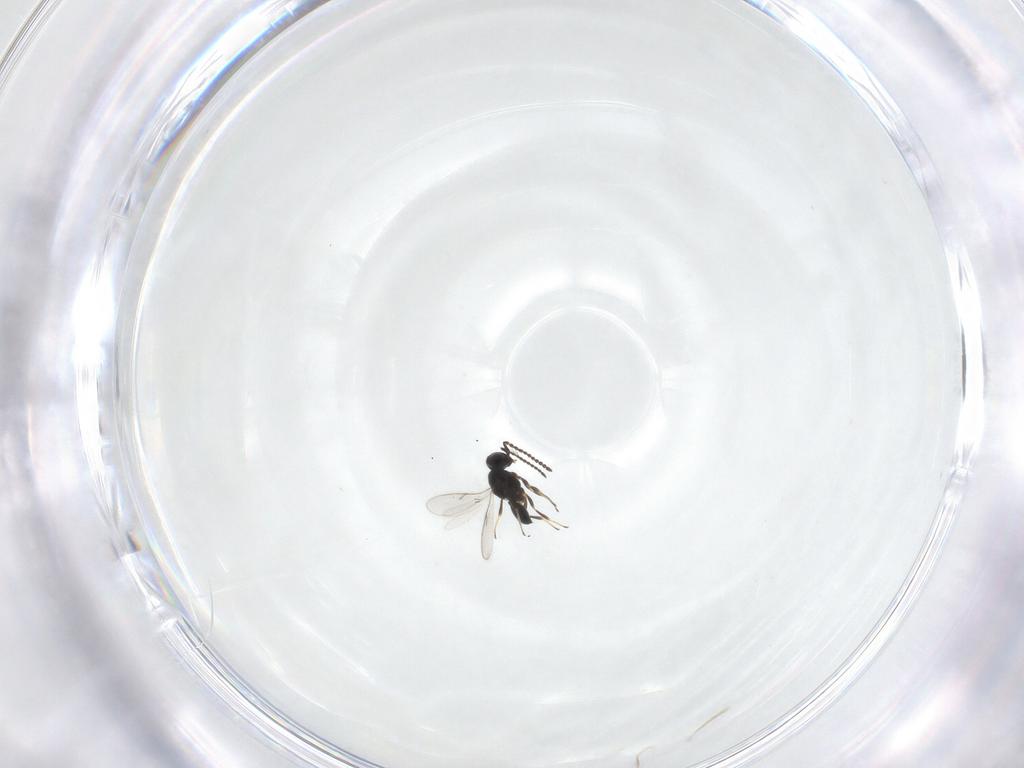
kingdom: Animalia
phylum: Arthropoda
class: Insecta
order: Hymenoptera
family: Scelionidae
